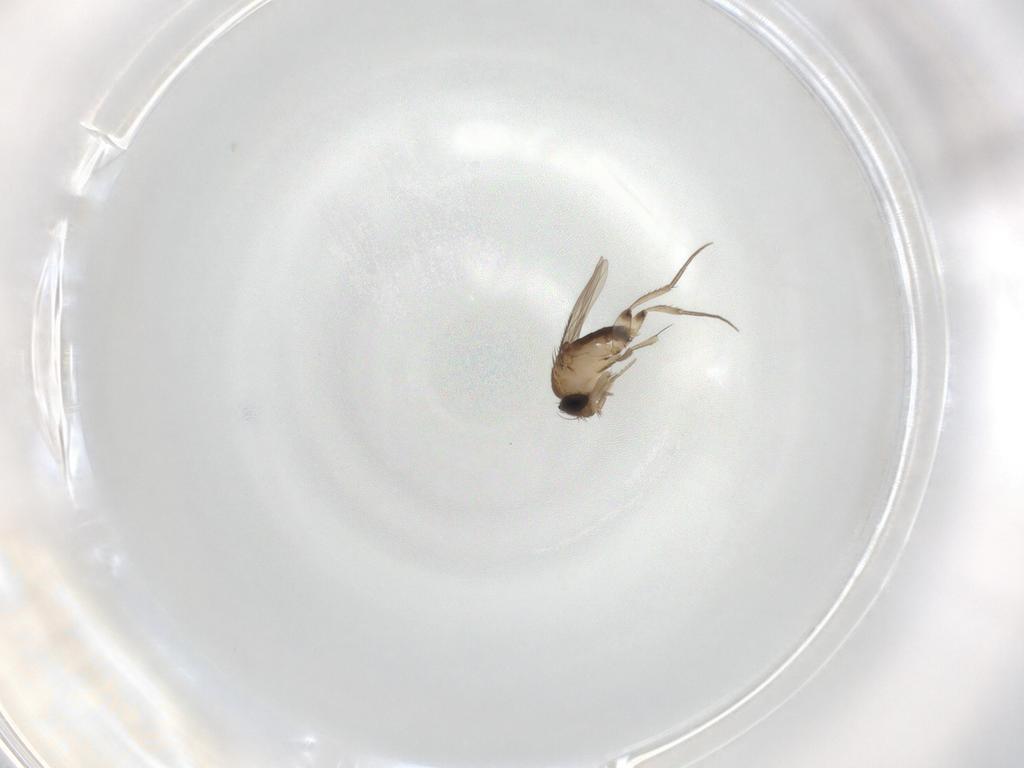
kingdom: Animalia
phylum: Arthropoda
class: Insecta
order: Diptera
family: Phoridae
